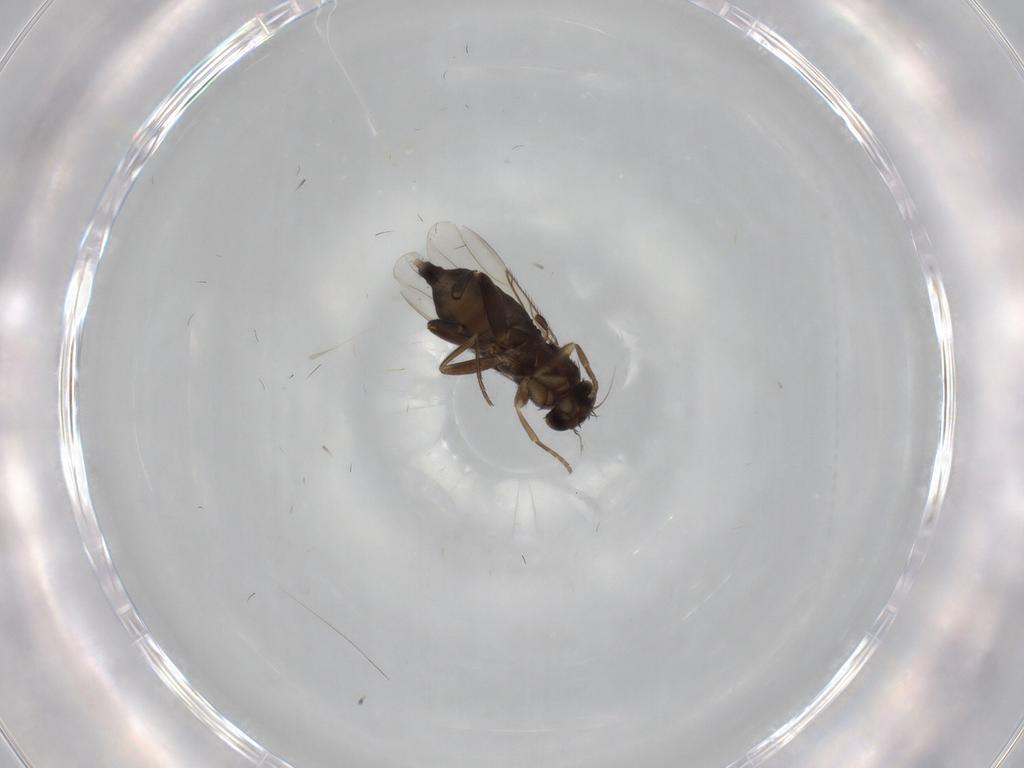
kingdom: Animalia
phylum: Arthropoda
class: Insecta
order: Diptera
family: Phoridae
